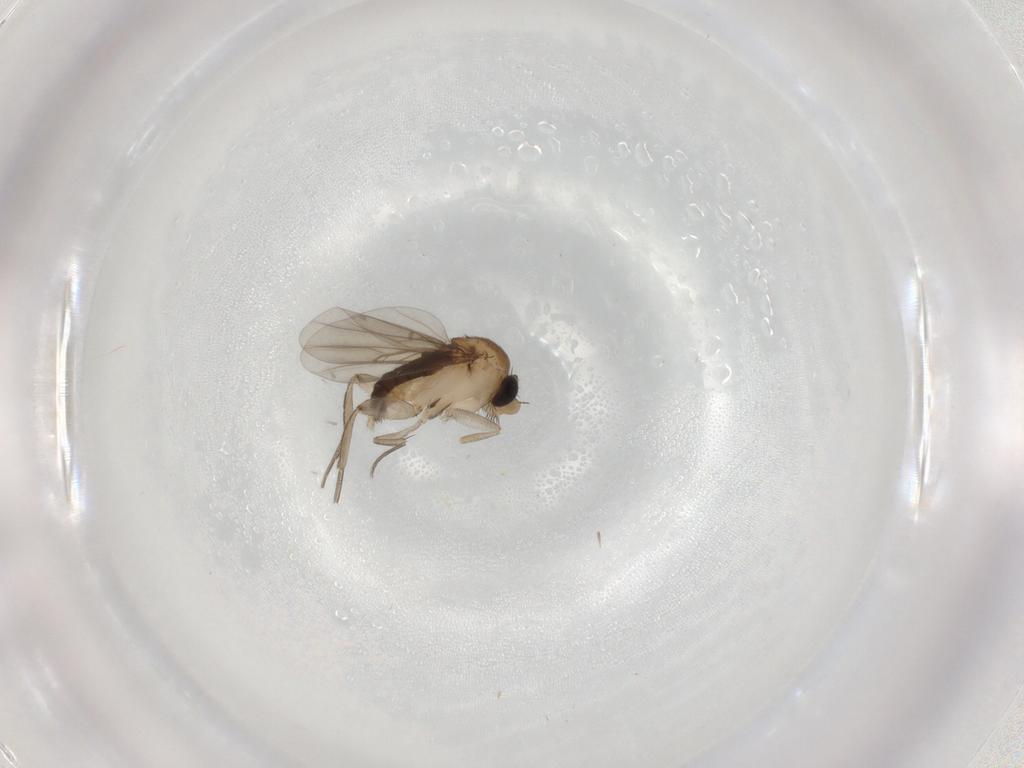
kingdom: Animalia
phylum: Arthropoda
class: Insecta
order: Diptera
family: Phoridae
